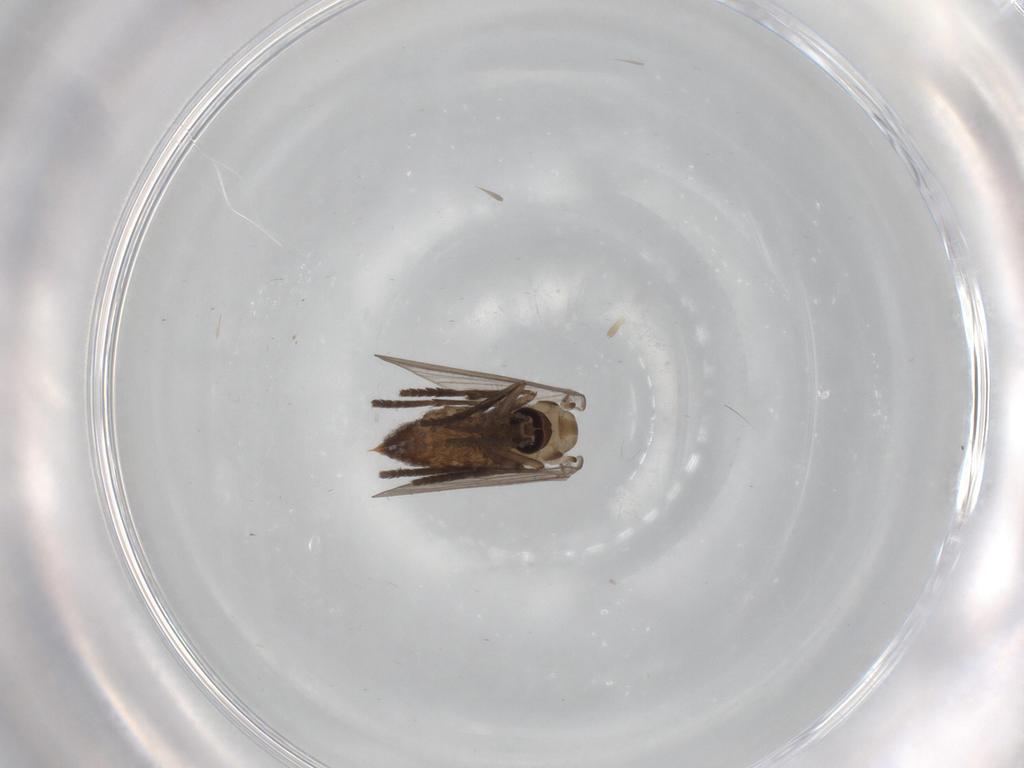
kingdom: Animalia
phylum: Arthropoda
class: Insecta
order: Diptera
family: Psychodidae
